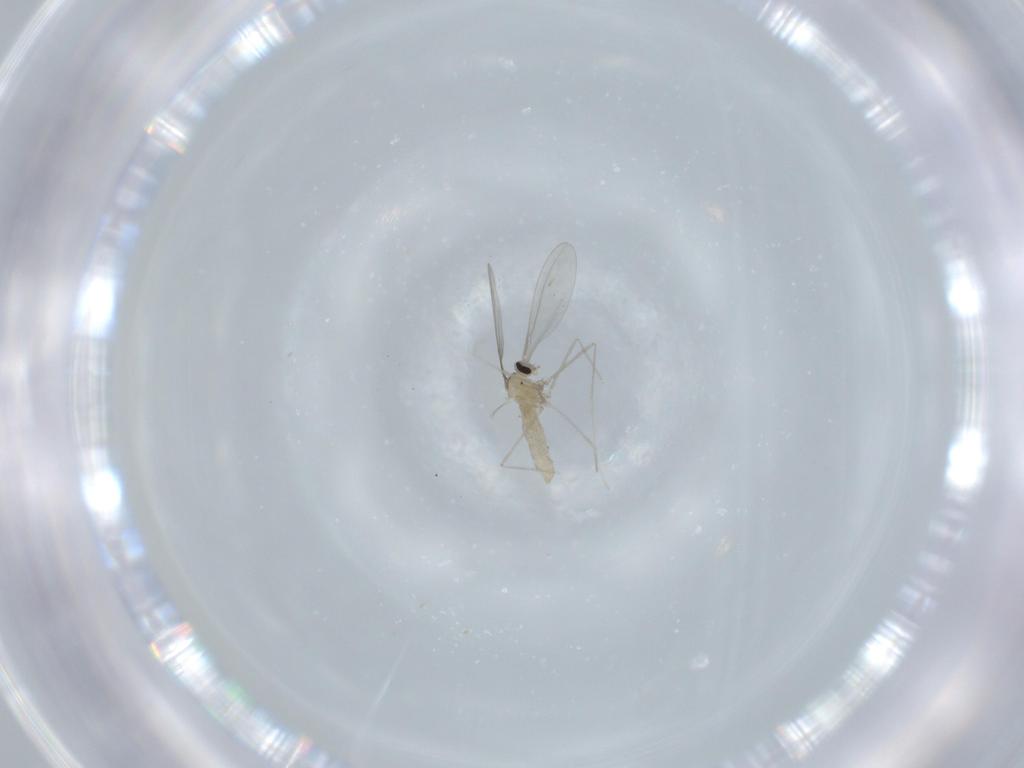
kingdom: Animalia
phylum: Arthropoda
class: Insecta
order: Diptera
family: Cecidomyiidae
